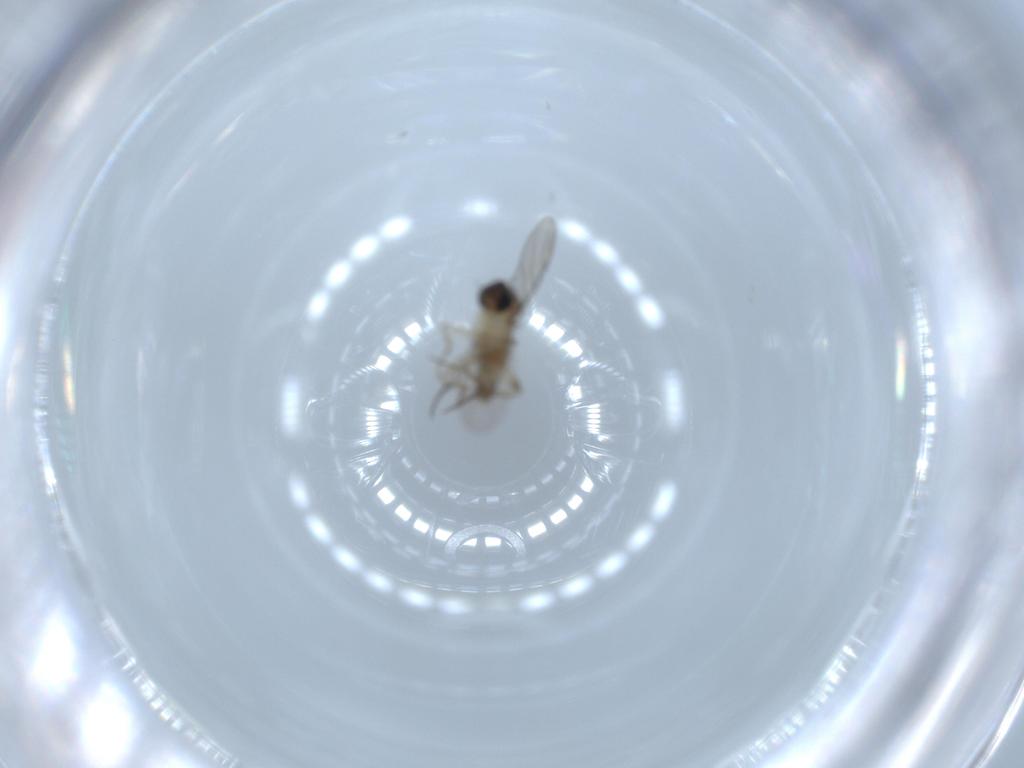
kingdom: Animalia
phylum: Arthropoda
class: Insecta
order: Diptera
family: Phoridae
